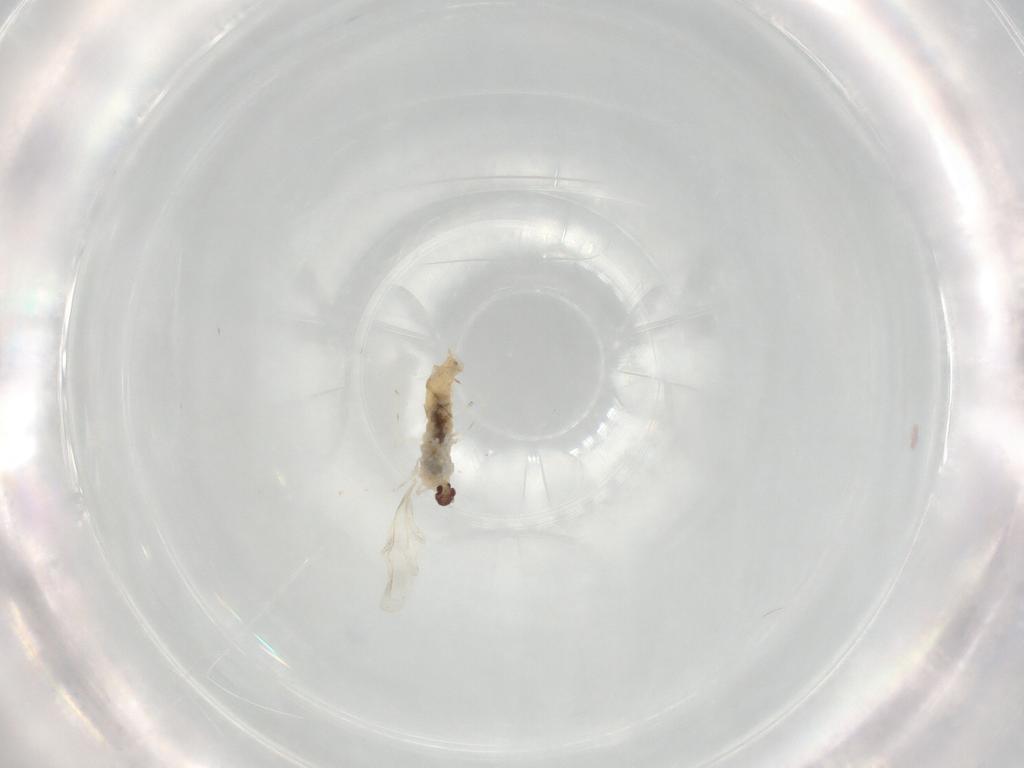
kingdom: Animalia
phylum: Arthropoda
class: Insecta
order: Diptera
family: Cecidomyiidae
